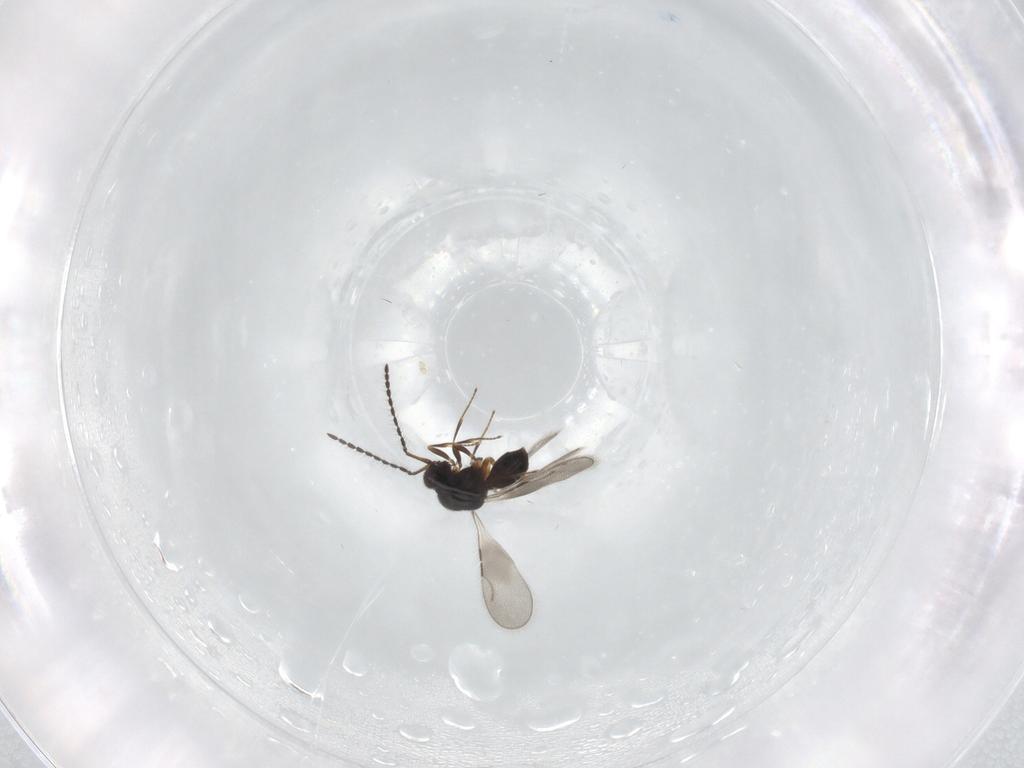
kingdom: Animalia
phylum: Arthropoda
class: Insecta
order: Hymenoptera
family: Ceraphronidae
